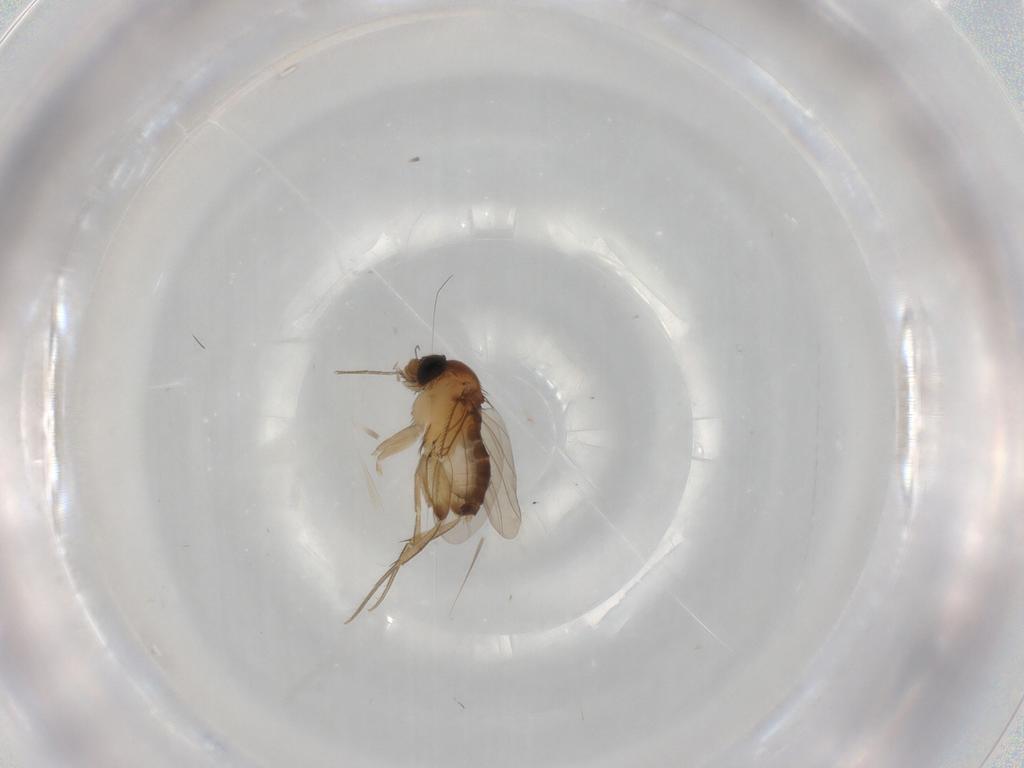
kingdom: Animalia
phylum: Arthropoda
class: Insecta
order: Diptera
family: Phoridae
